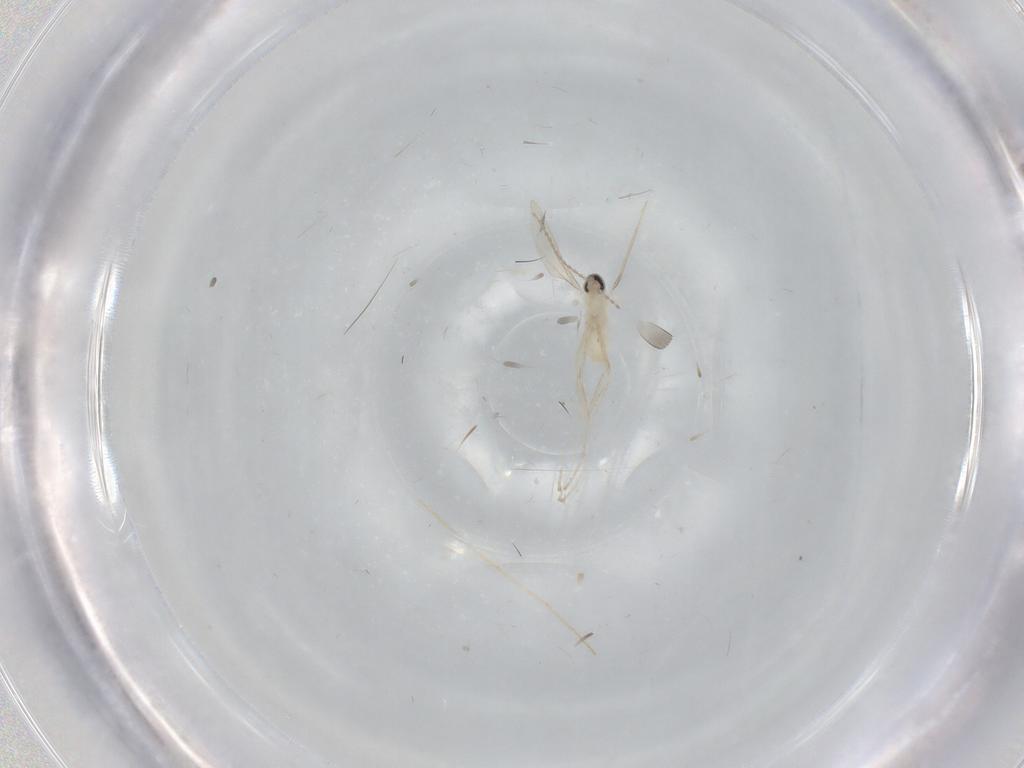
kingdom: Animalia
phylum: Arthropoda
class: Insecta
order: Diptera
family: Cecidomyiidae
